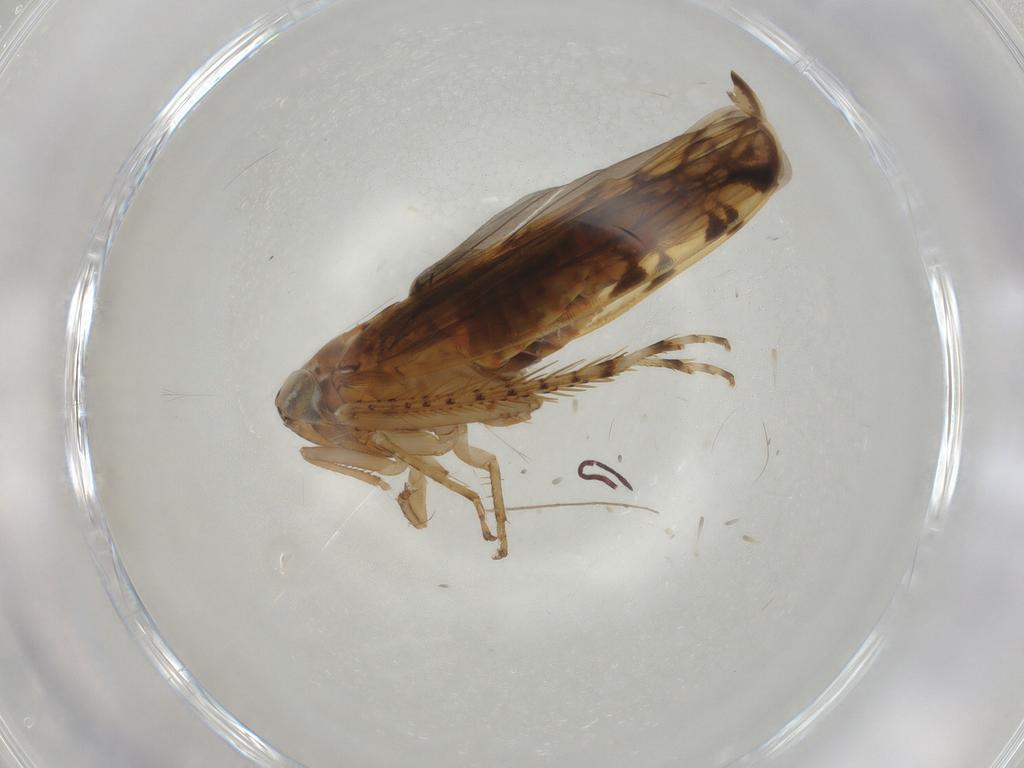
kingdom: Animalia
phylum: Arthropoda
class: Insecta
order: Hemiptera
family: Cicadellidae
